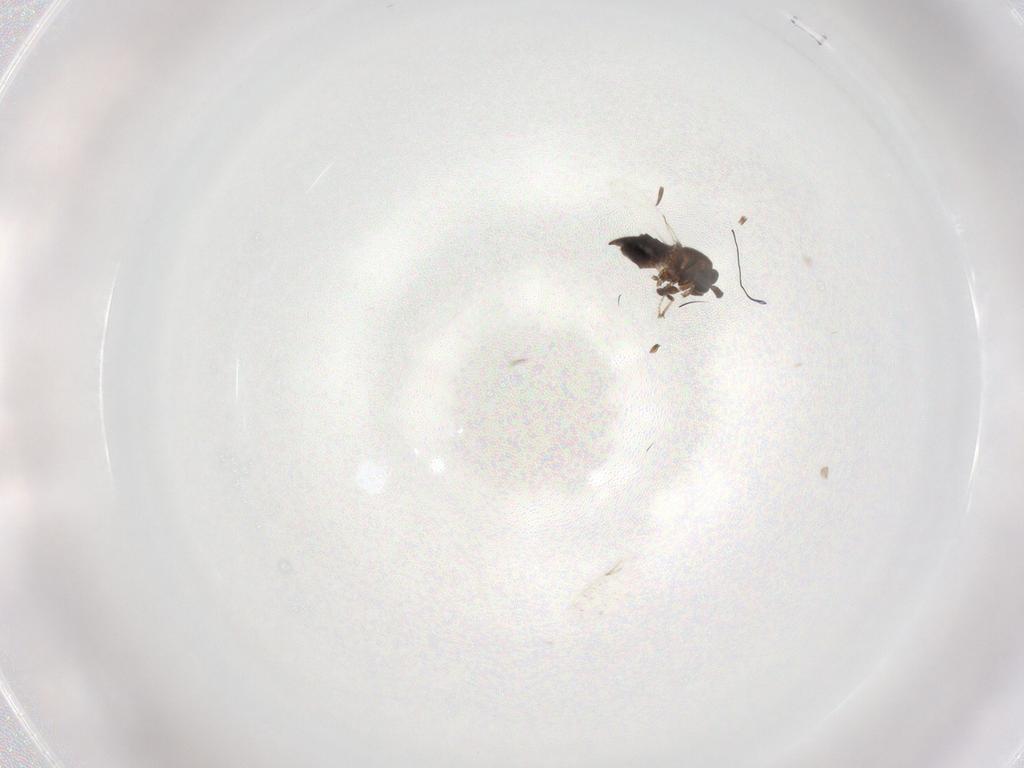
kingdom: Animalia
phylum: Arthropoda
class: Insecta
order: Diptera
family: Scatopsidae
